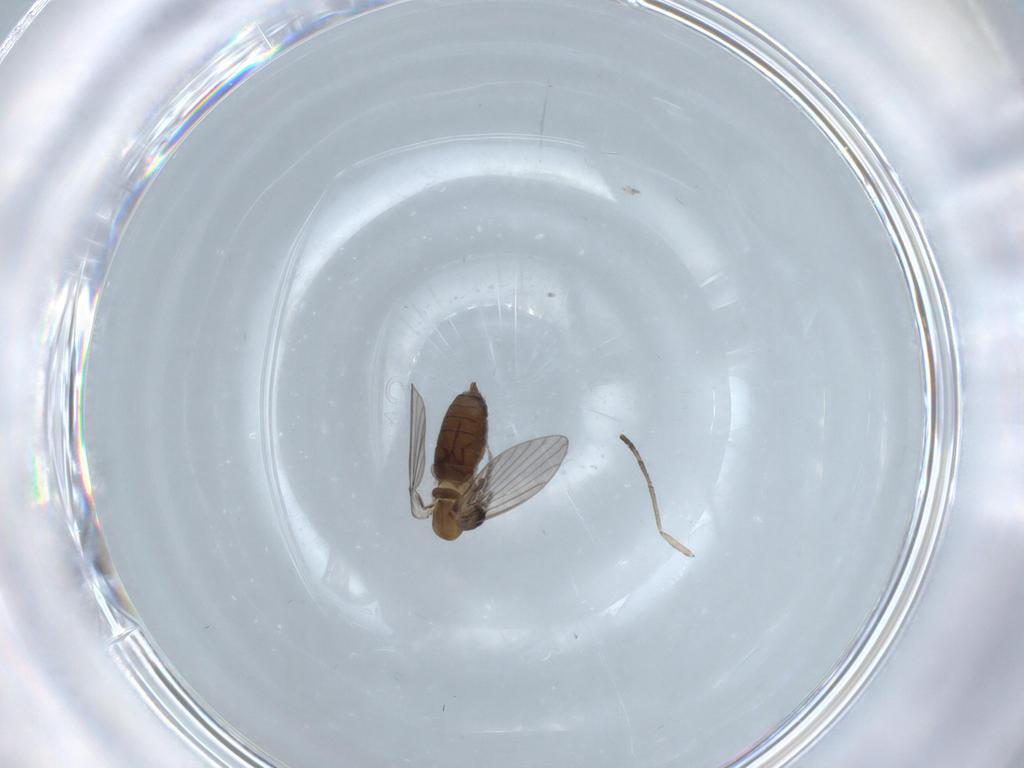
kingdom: Animalia
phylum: Arthropoda
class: Insecta
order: Diptera
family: Psychodidae
